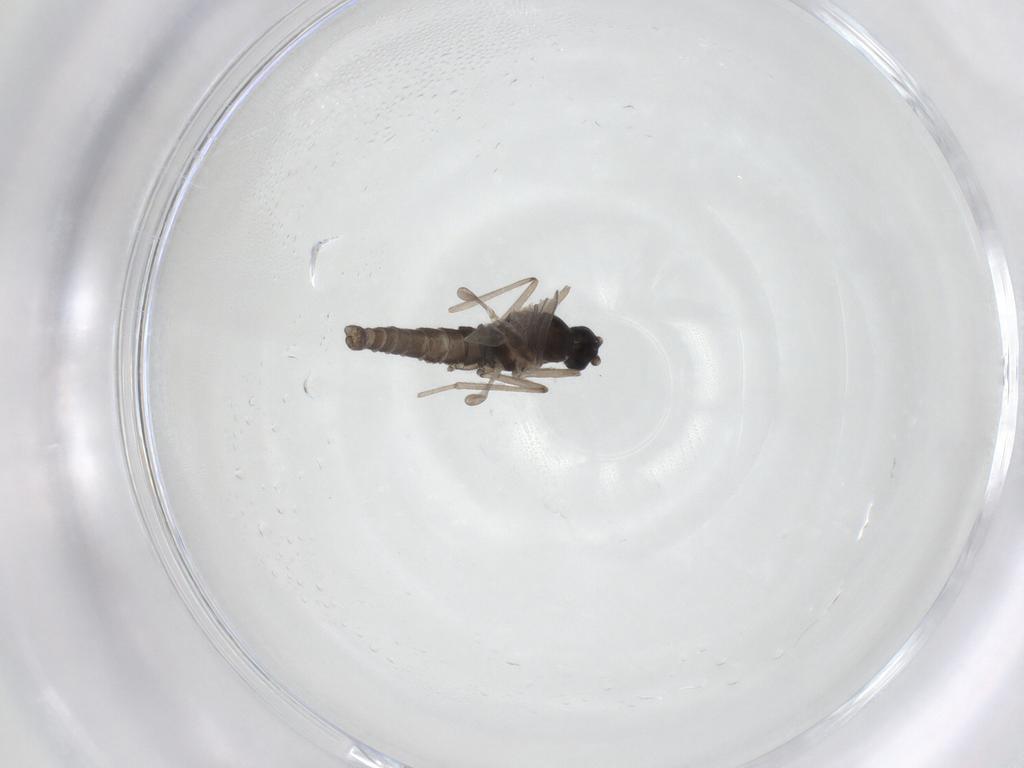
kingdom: Animalia
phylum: Arthropoda
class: Insecta
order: Diptera
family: Cecidomyiidae
